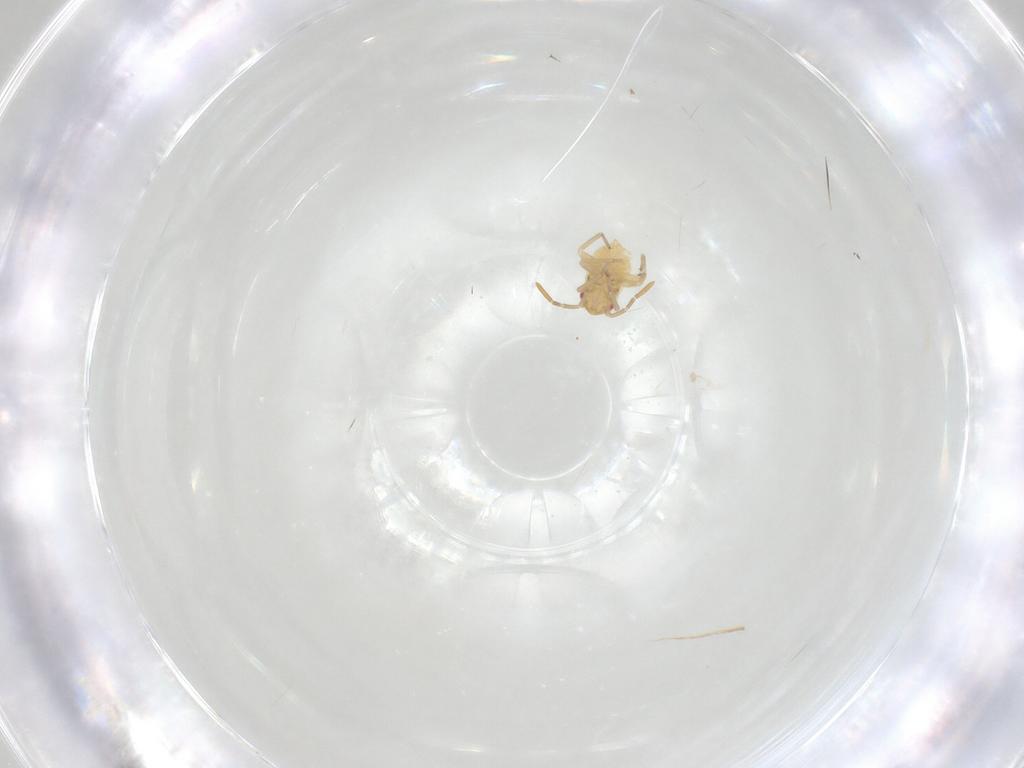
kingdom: Animalia
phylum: Arthropoda
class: Insecta
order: Hemiptera
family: Miridae
